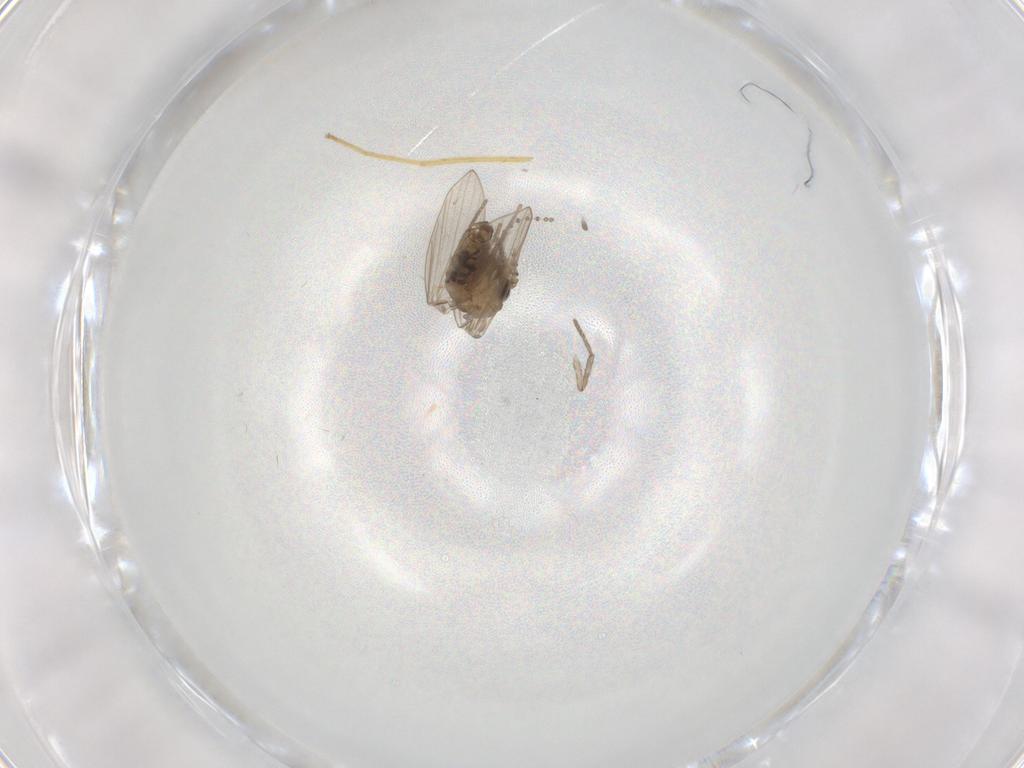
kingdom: Animalia
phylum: Arthropoda
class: Insecta
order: Diptera
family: Psychodidae
